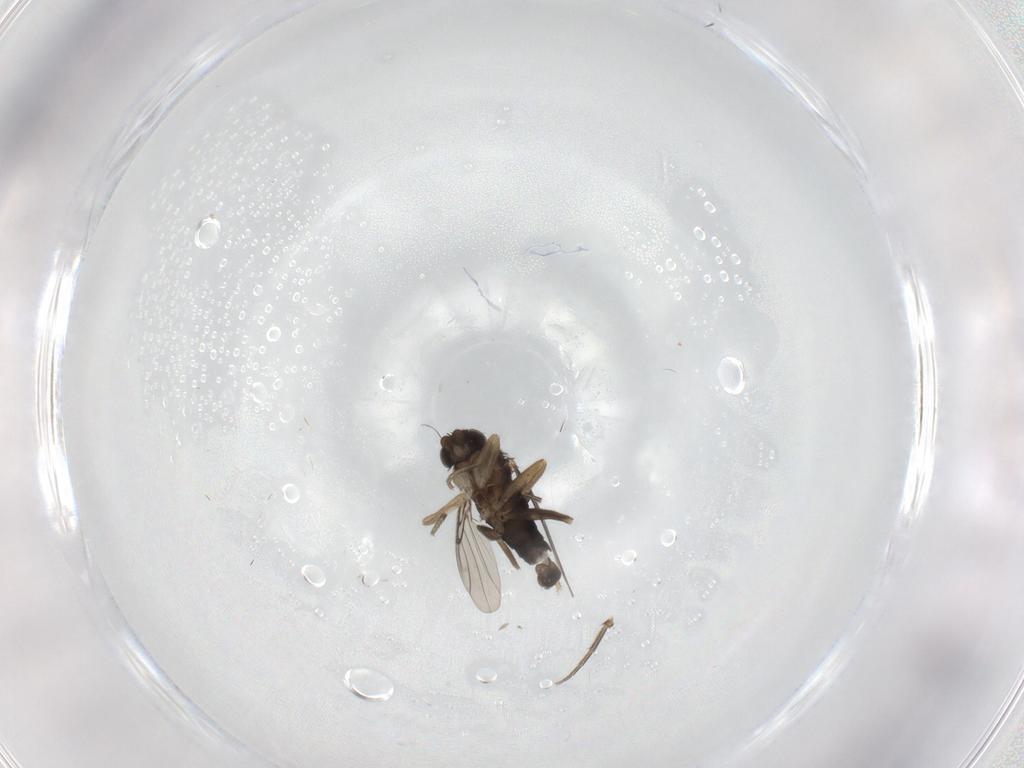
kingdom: Animalia
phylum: Arthropoda
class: Insecta
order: Diptera
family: Phoridae
